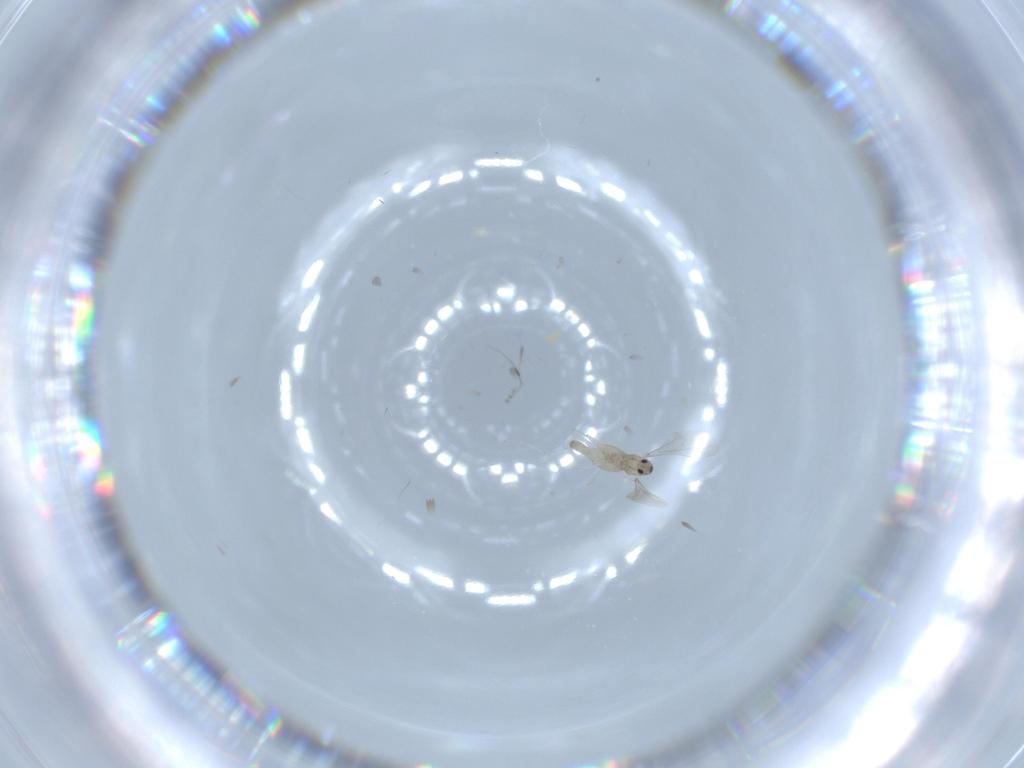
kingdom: Animalia
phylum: Arthropoda
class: Insecta
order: Diptera
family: Cecidomyiidae
